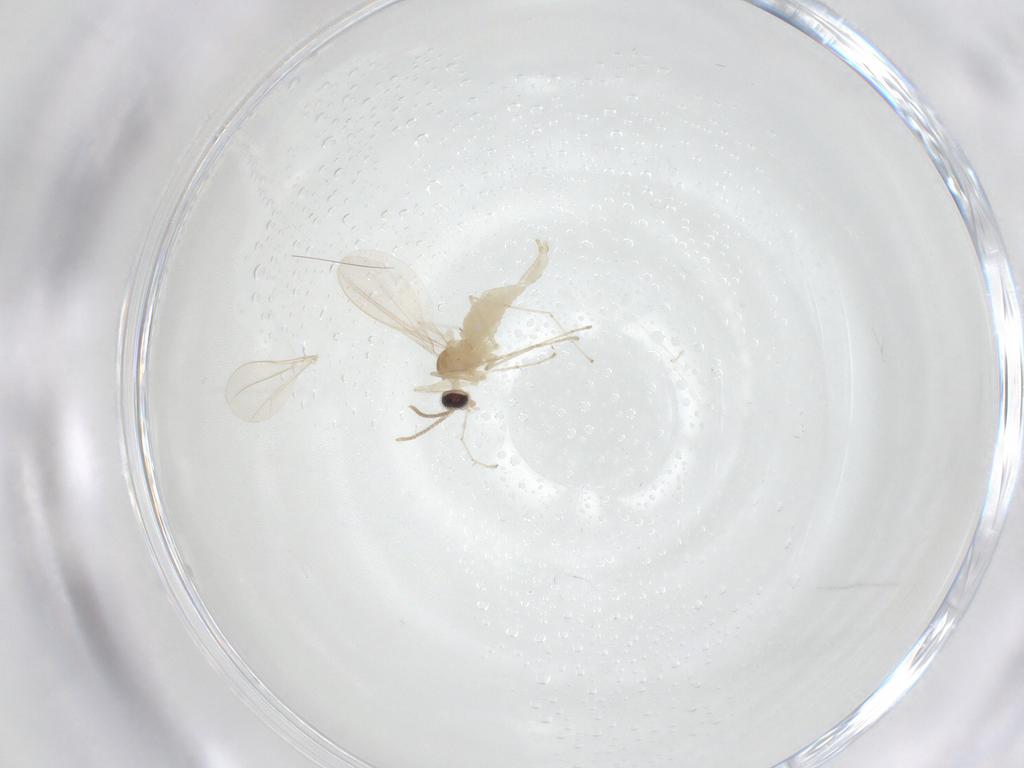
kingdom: Animalia
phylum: Arthropoda
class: Insecta
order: Diptera
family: Cecidomyiidae
